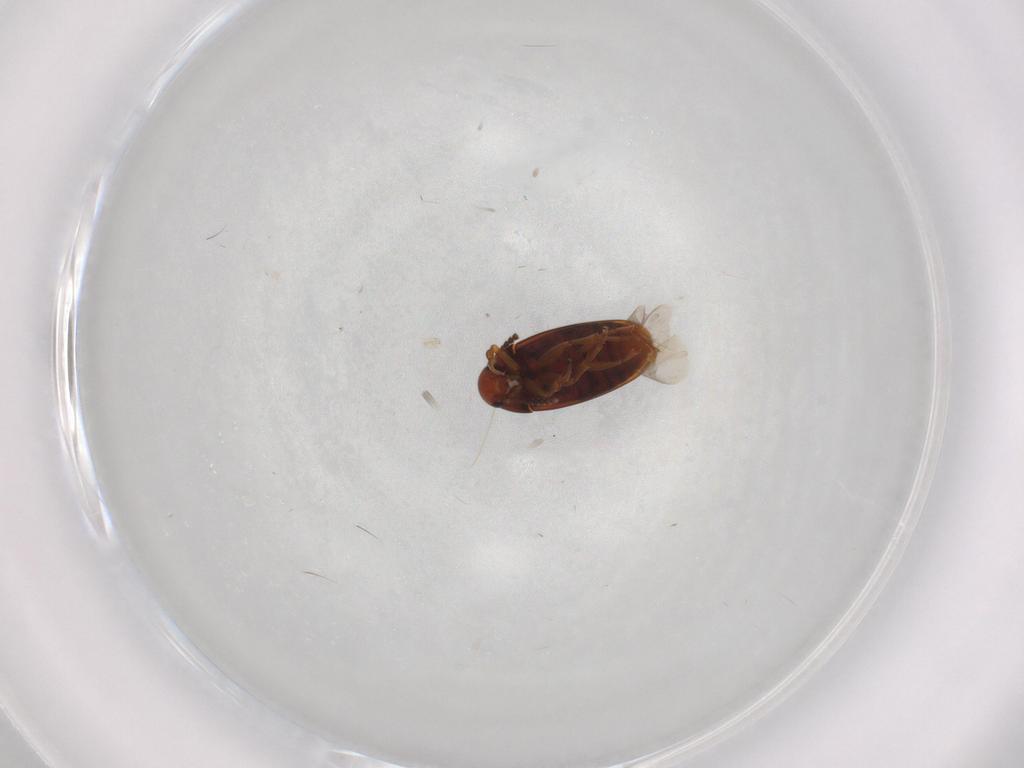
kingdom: Animalia
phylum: Arthropoda
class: Insecta
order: Coleoptera
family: Scraptiidae
